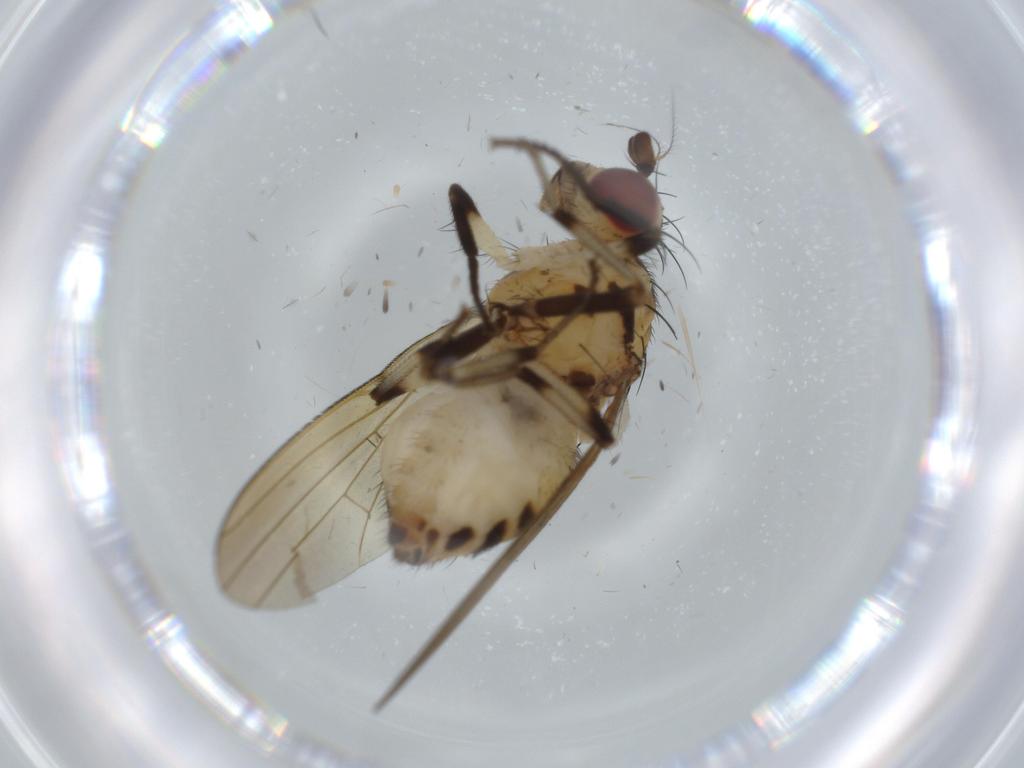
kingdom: Animalia
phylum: Arthropoda
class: Insecta
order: Diptera
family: Lauxaniidae
